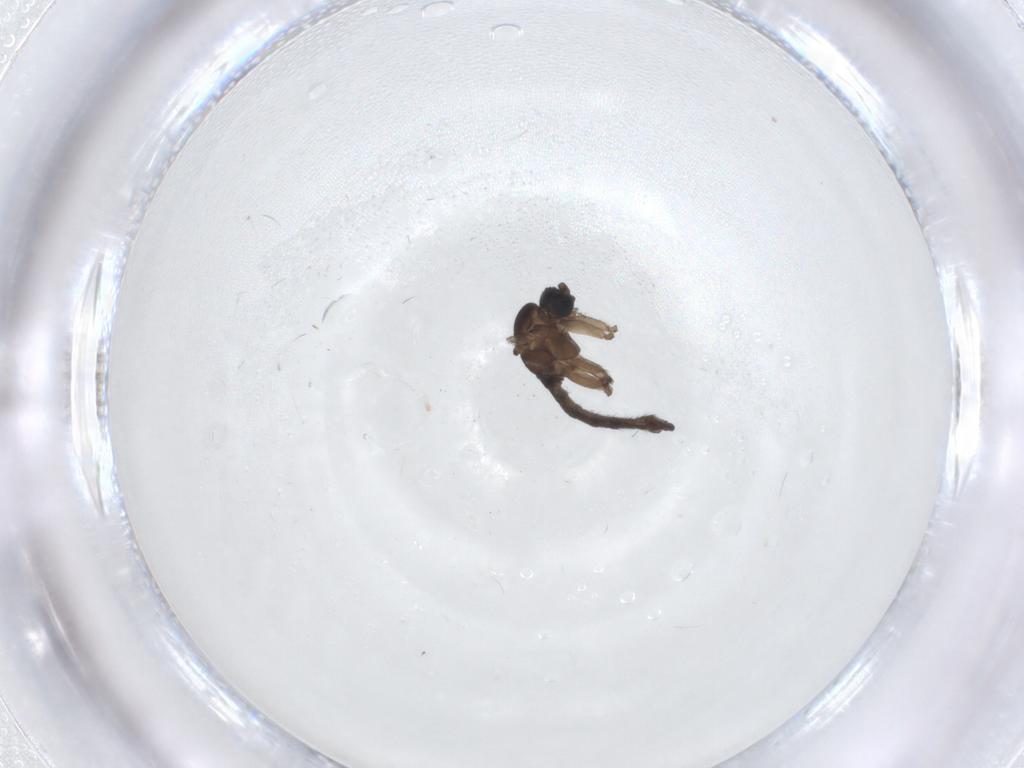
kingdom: Animalia
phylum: Arthropoda
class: Insecta
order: Diptera
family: Sciaridae
